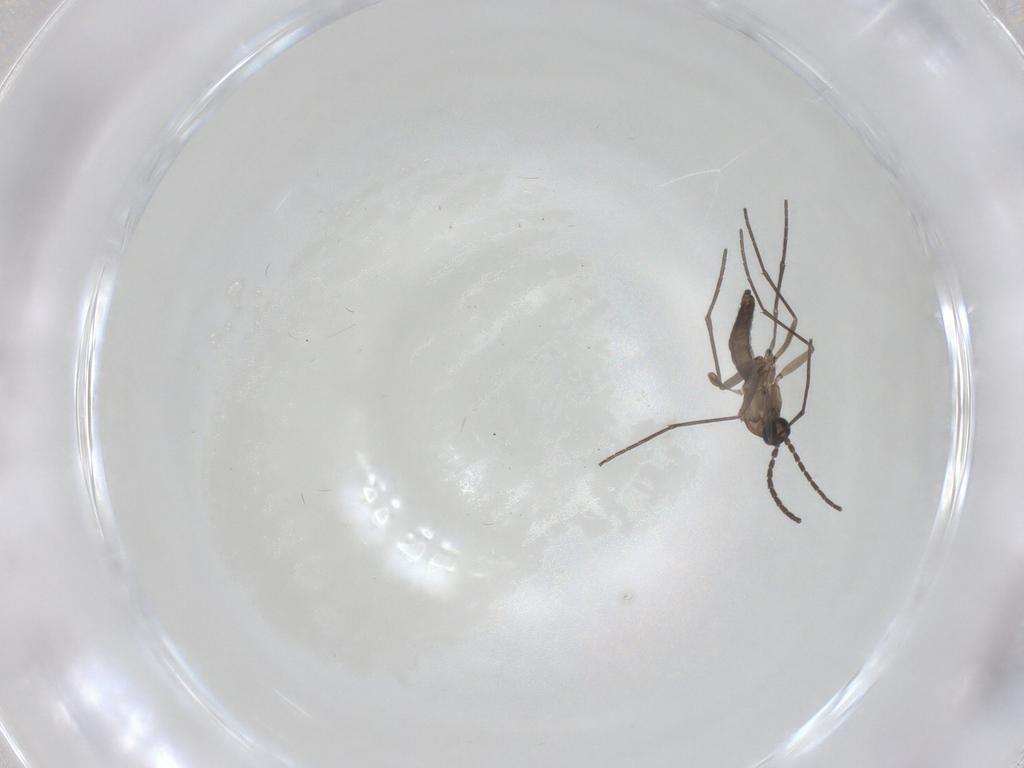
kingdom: Animalia
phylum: Arthropoda
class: Insecta
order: Diptera
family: Sciaridae
